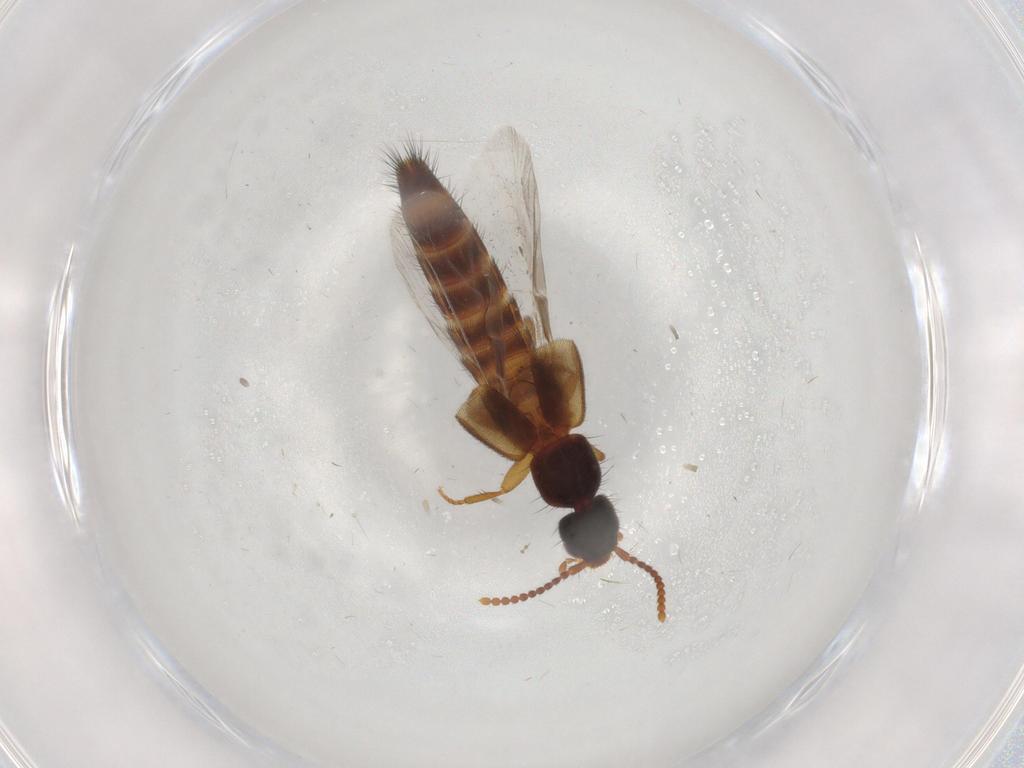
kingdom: Animalia
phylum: Arthropoda
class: Insecta
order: Coleoptera
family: Staphylinidae
